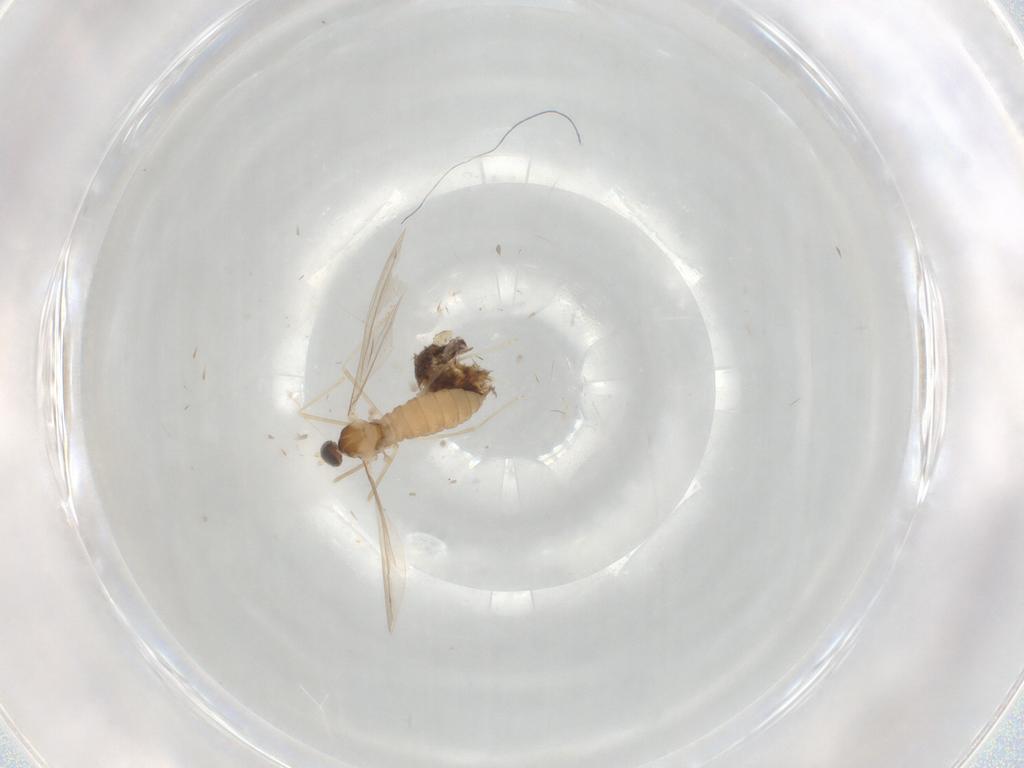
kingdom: Animalia
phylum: Arthropoda
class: Insecta
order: Diptera
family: Cecidomyiidae
